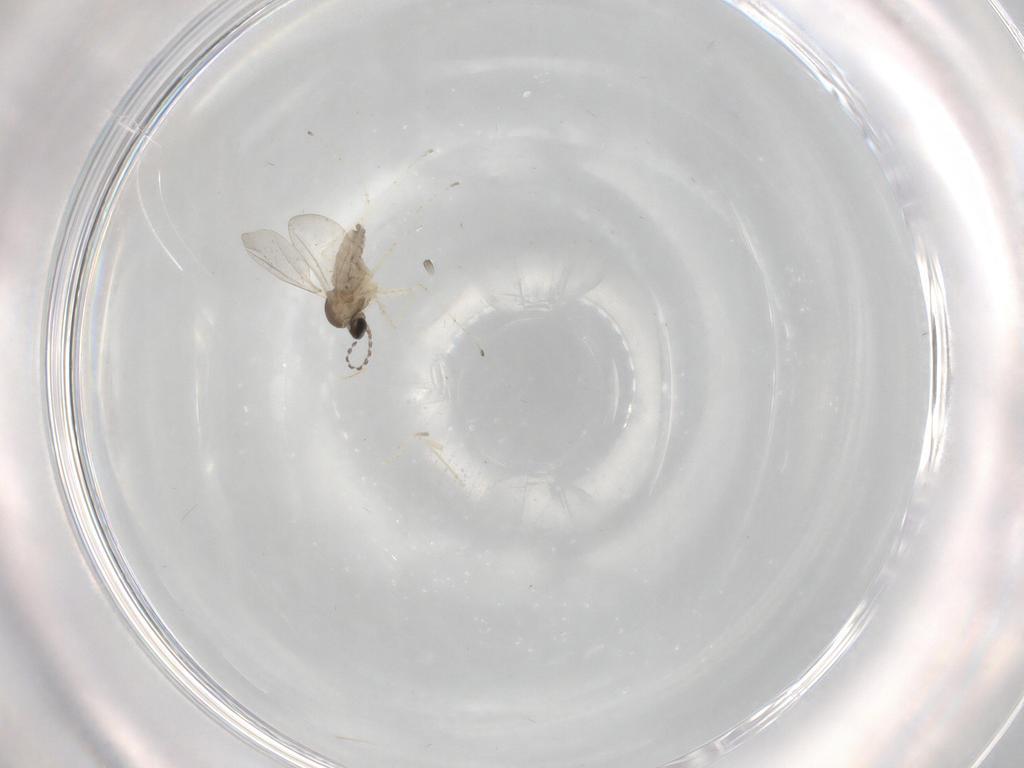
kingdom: Animalia
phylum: Arthropoda
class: Insecta
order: Diptera
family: Cecidomyiidae
